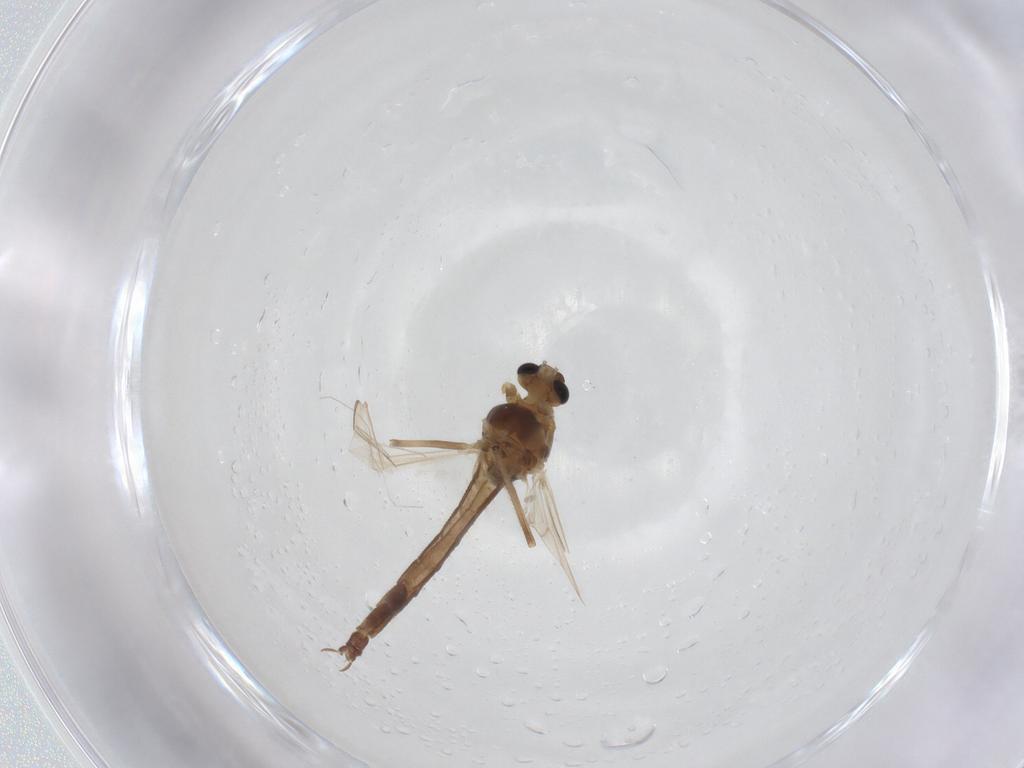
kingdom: Animalia
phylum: Arthropoda
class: Insecta
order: Diptera
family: Chironomidae
